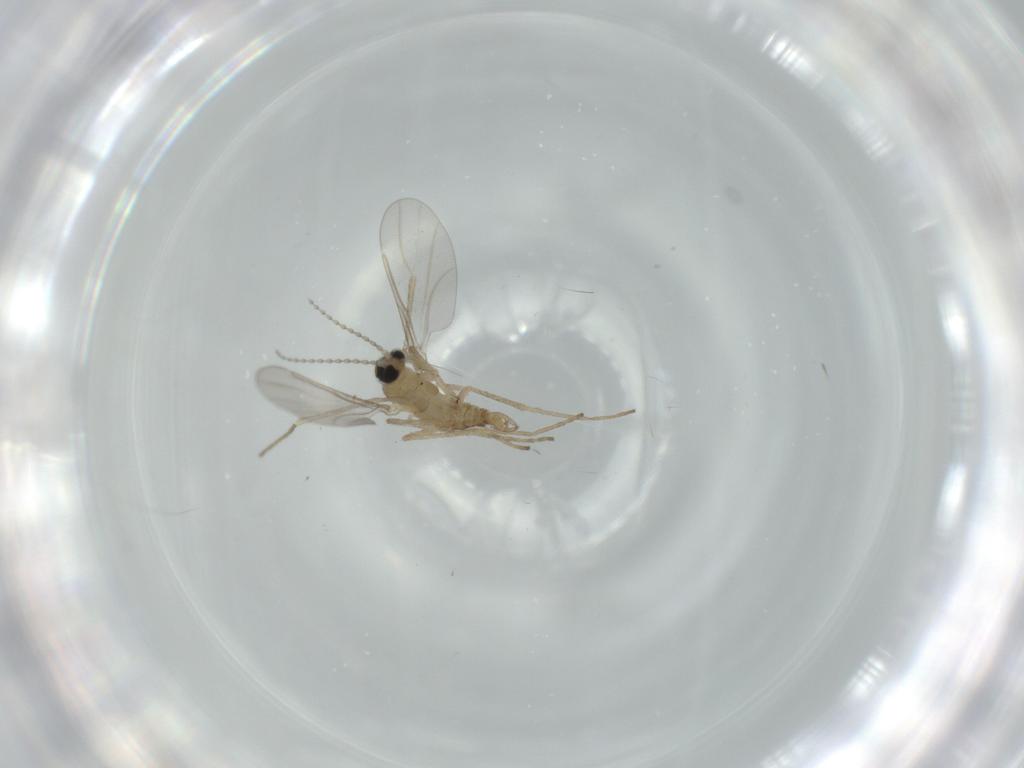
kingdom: Animalia
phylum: Arthropoda
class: Insecta
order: Diptera
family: Cecidomyiidae
